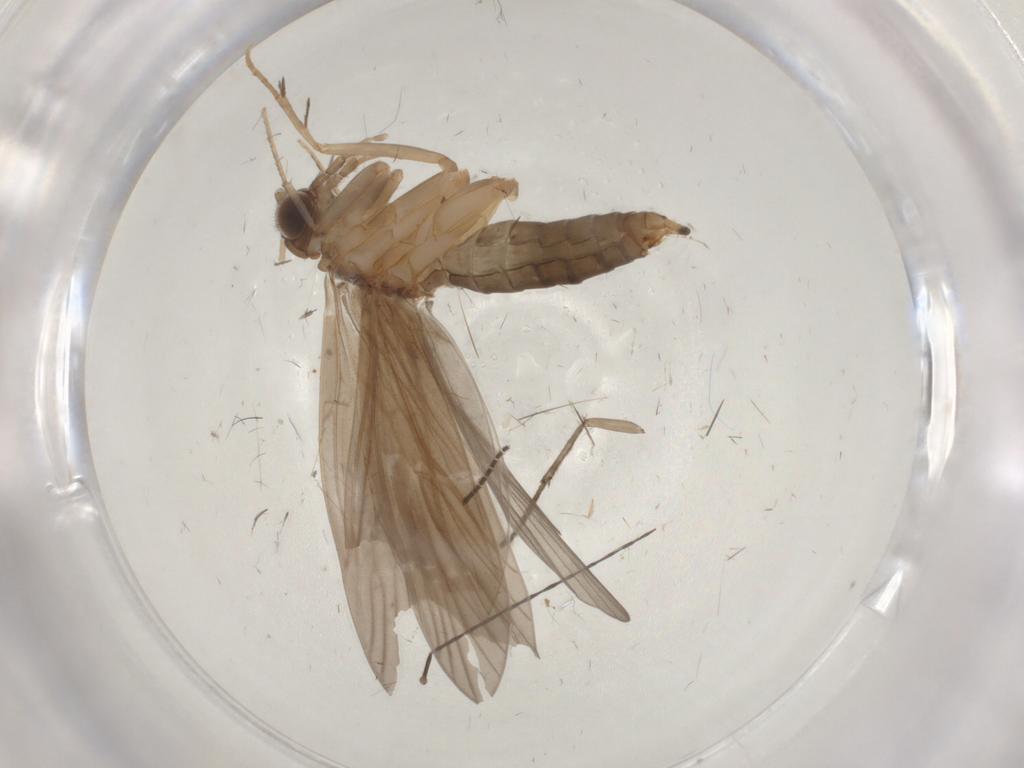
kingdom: Animalia
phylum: Arthropoda
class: Insecta
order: Trichoptera
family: Philopotamidae
